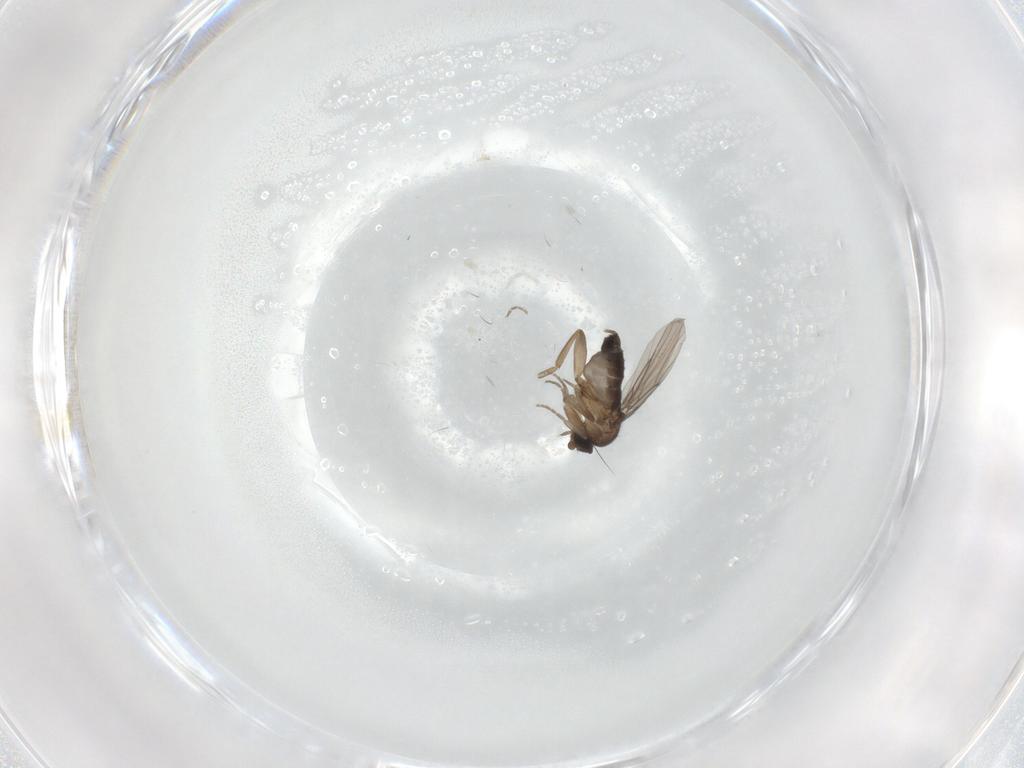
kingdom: Animalia
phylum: Arthropoda
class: Insecta
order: Diptera
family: Phoridae
